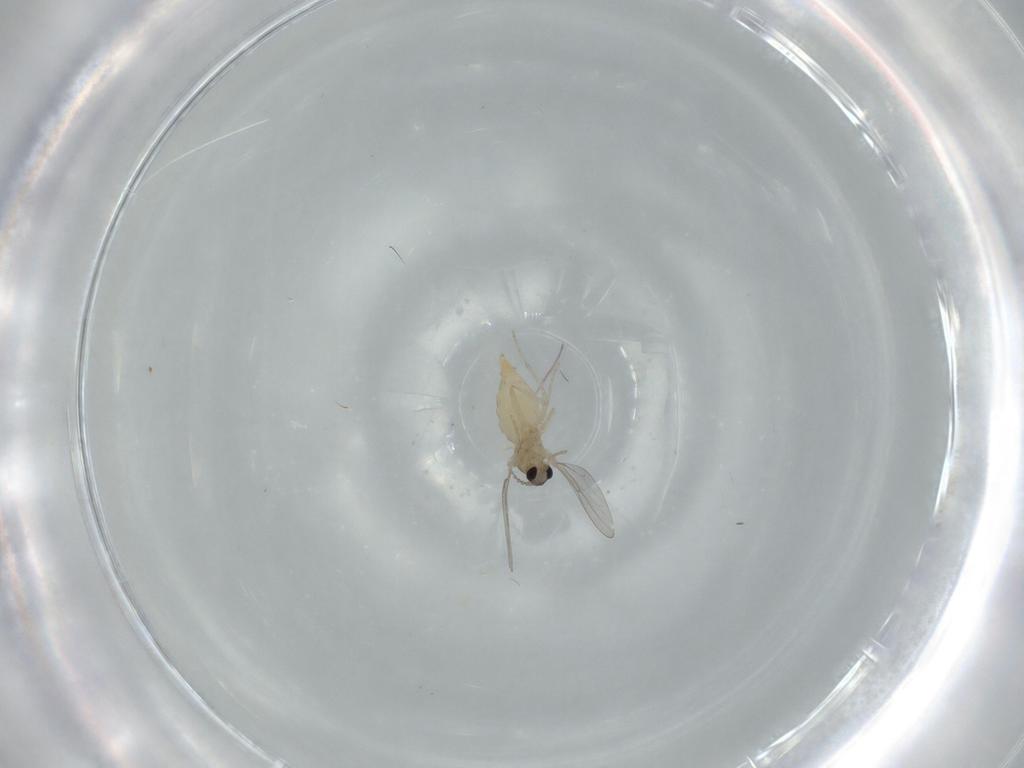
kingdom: Animalia
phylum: Arthropoda
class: Insecta
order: Diptera
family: Cecidomyiidae
